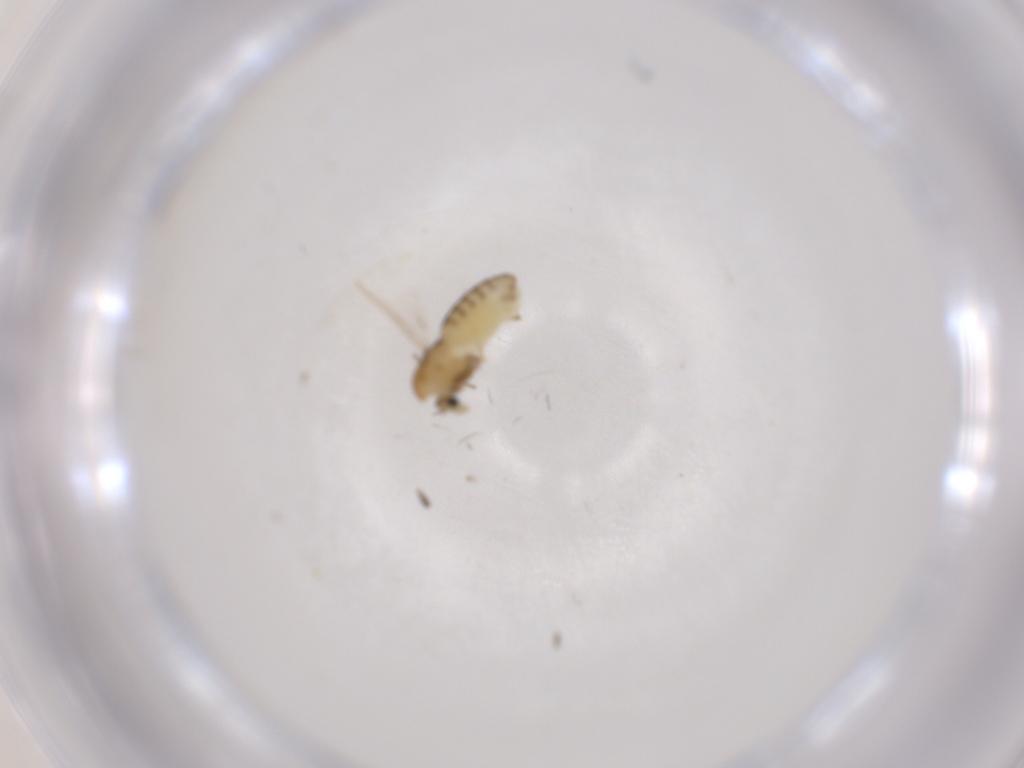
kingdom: Animalia
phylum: Arthropoda
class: Insecta
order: Diptera
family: Chironomidae
